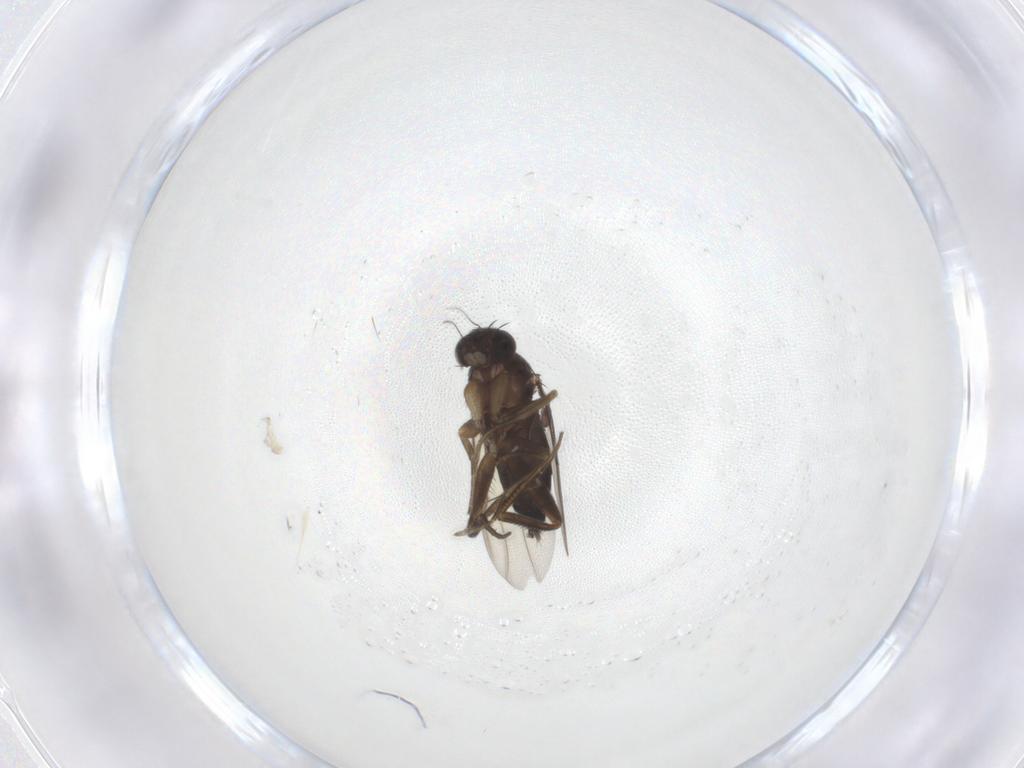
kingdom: Animalia
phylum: Arthropoda
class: Insecta
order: Diptera
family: Phoridae
